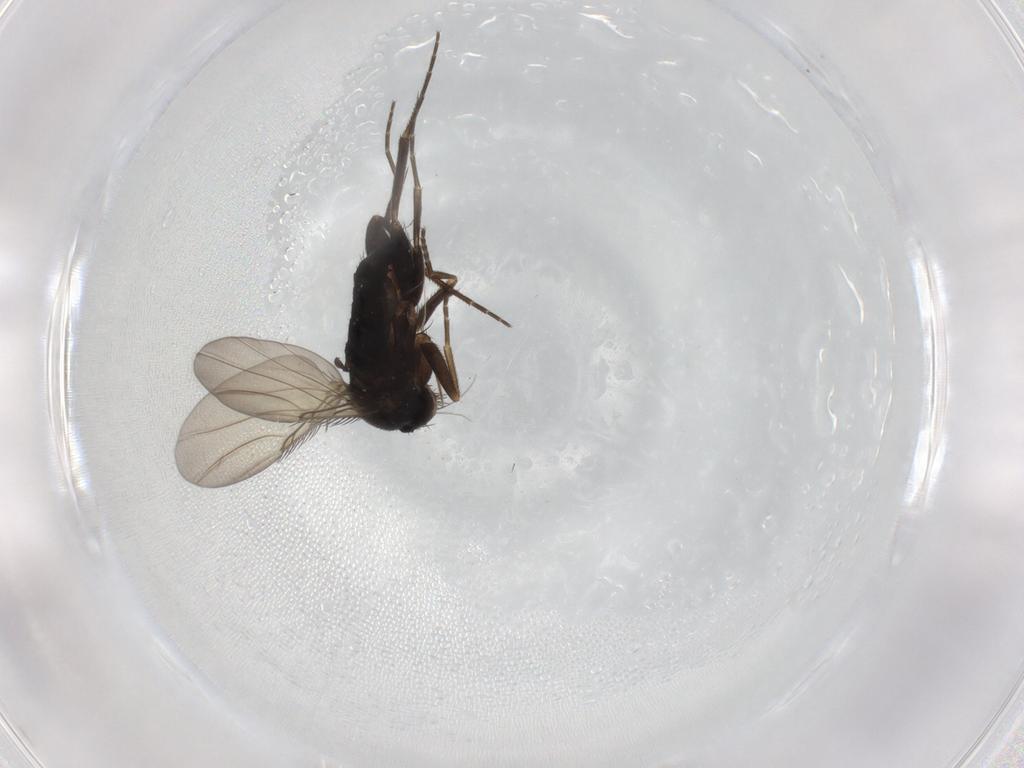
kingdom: Animalia
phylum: Arthropoda
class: Insecta
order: Diptera
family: Phoridae
